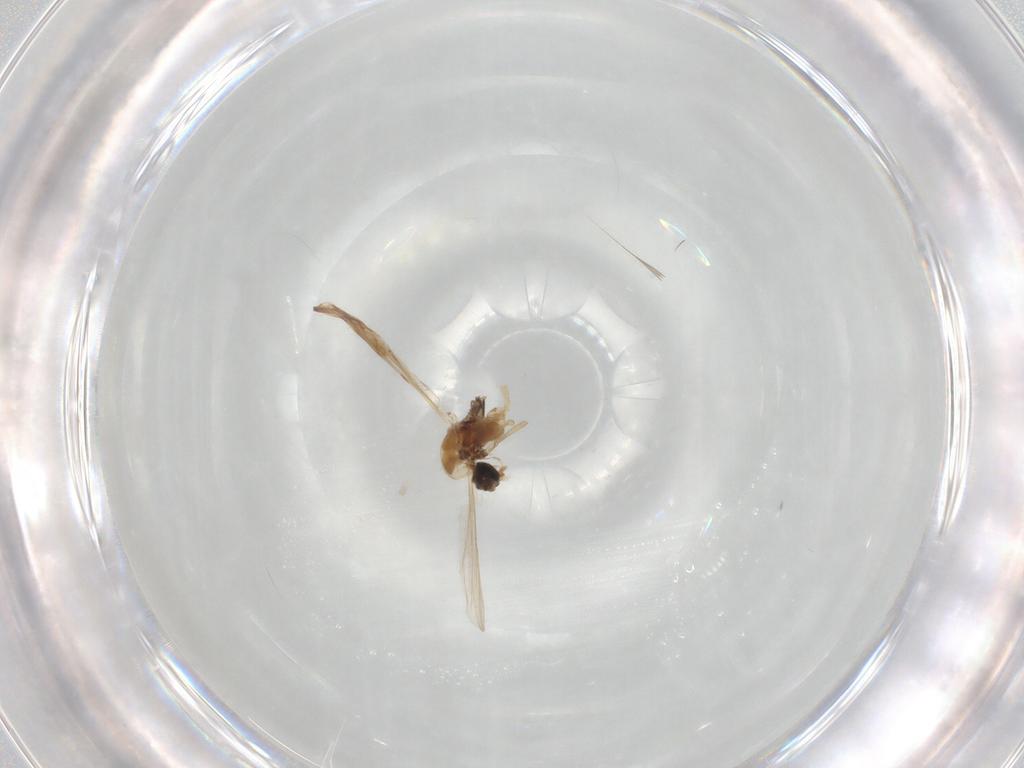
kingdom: Animalia
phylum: Arthropoda
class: Insecta
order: Diptera
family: Chironomidae
